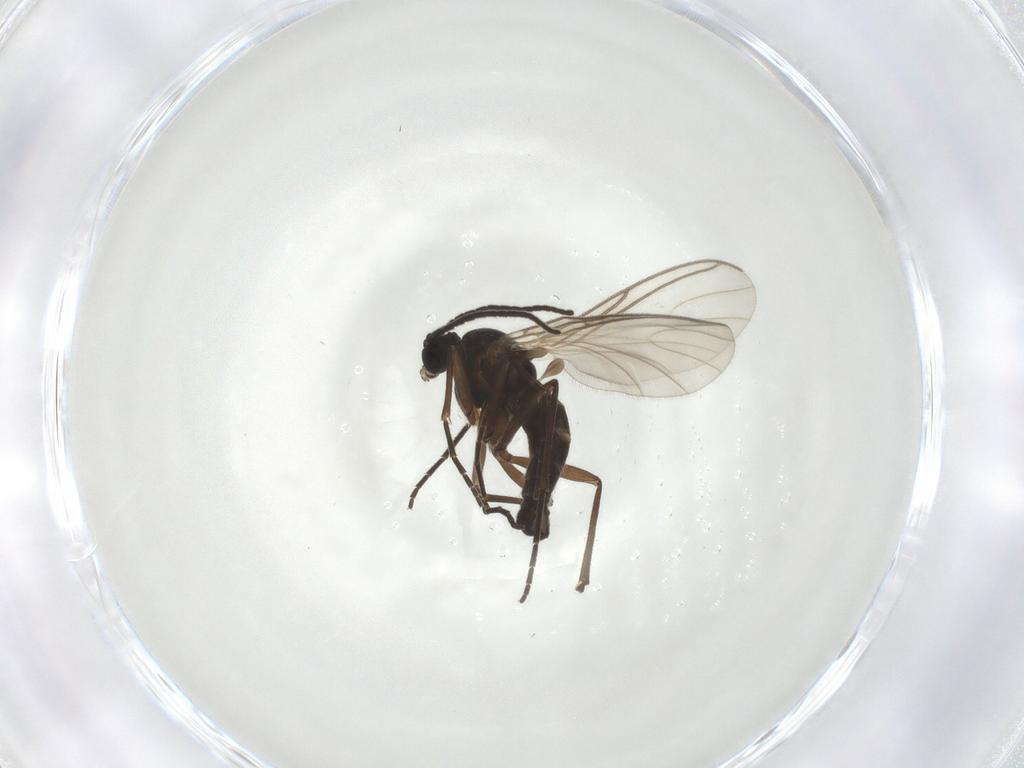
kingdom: Animalia
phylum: Arthropoda
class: Insecta
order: Diptera
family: Sciaridae
